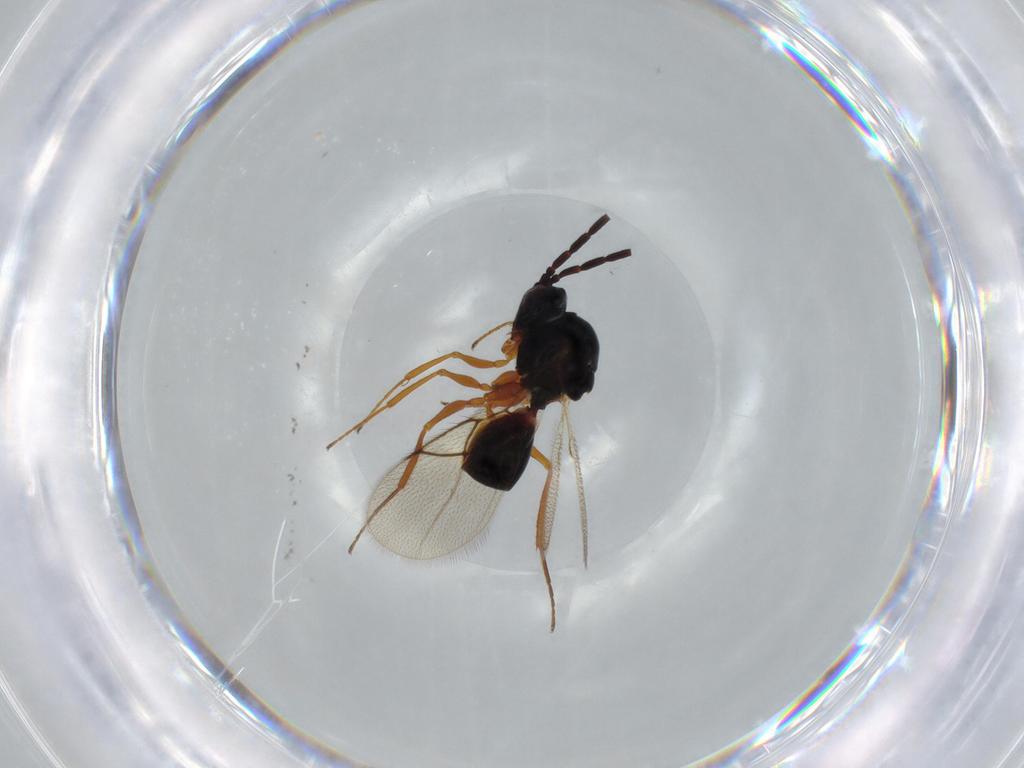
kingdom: Animalia
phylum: Arthropoda
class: Insecta
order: Hymenoptera
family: Figitidae
